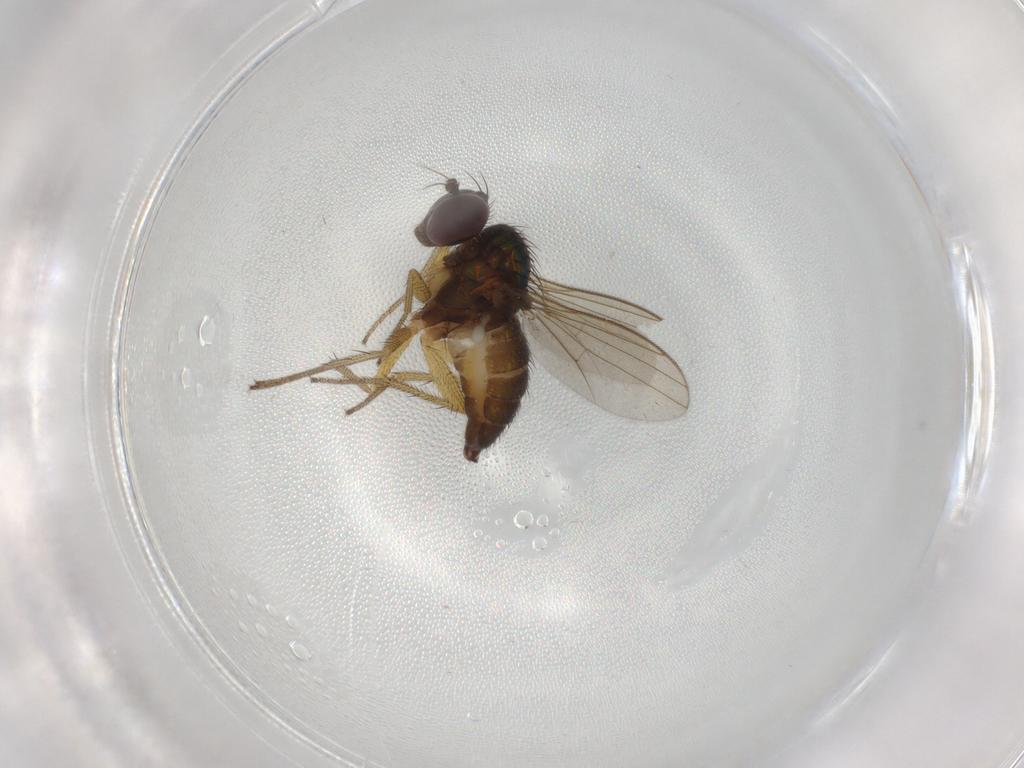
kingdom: Animalia
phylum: Arthropoda
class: Insecta
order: Diptera
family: Dolichopodidae
